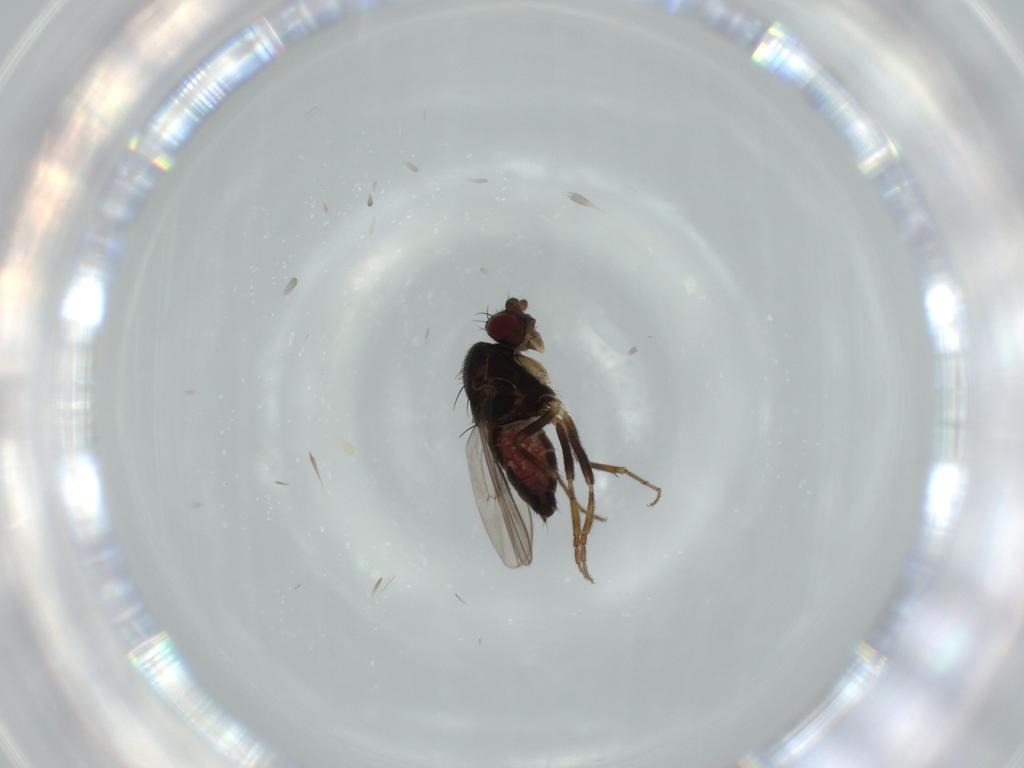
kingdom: Animalia
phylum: Arthropoda
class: Insecta
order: Diptera
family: Sphaeroceridae
